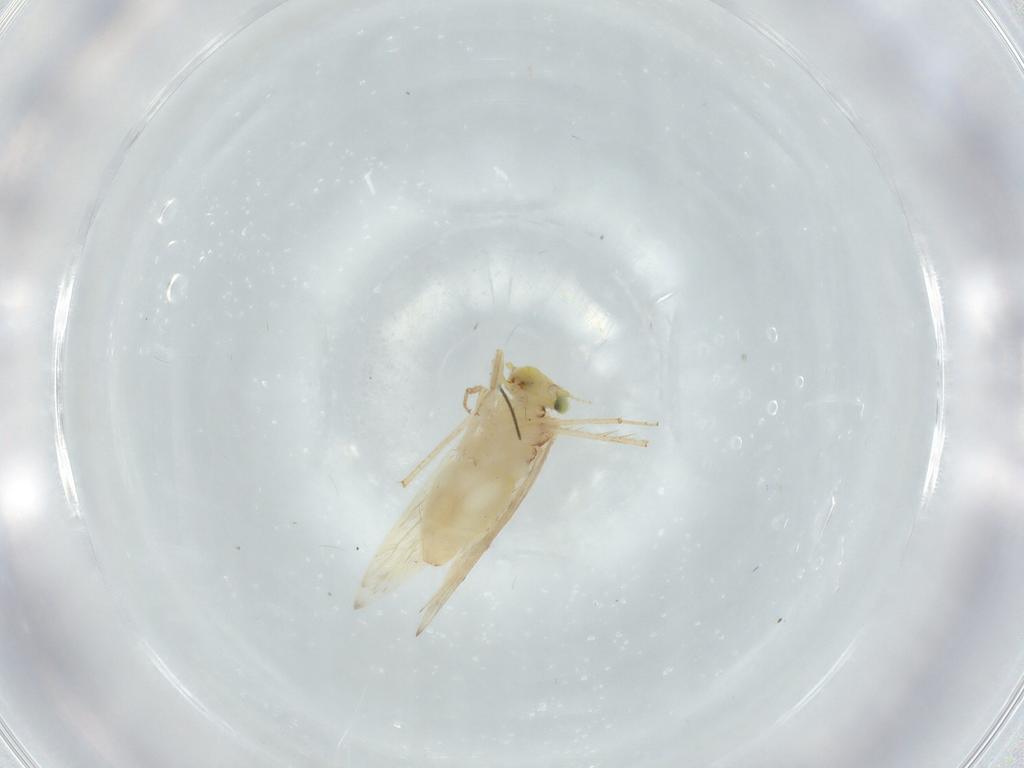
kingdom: Animalia
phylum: Arthropoda
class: Insecta
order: Psocodea
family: Lepidopsocidae
